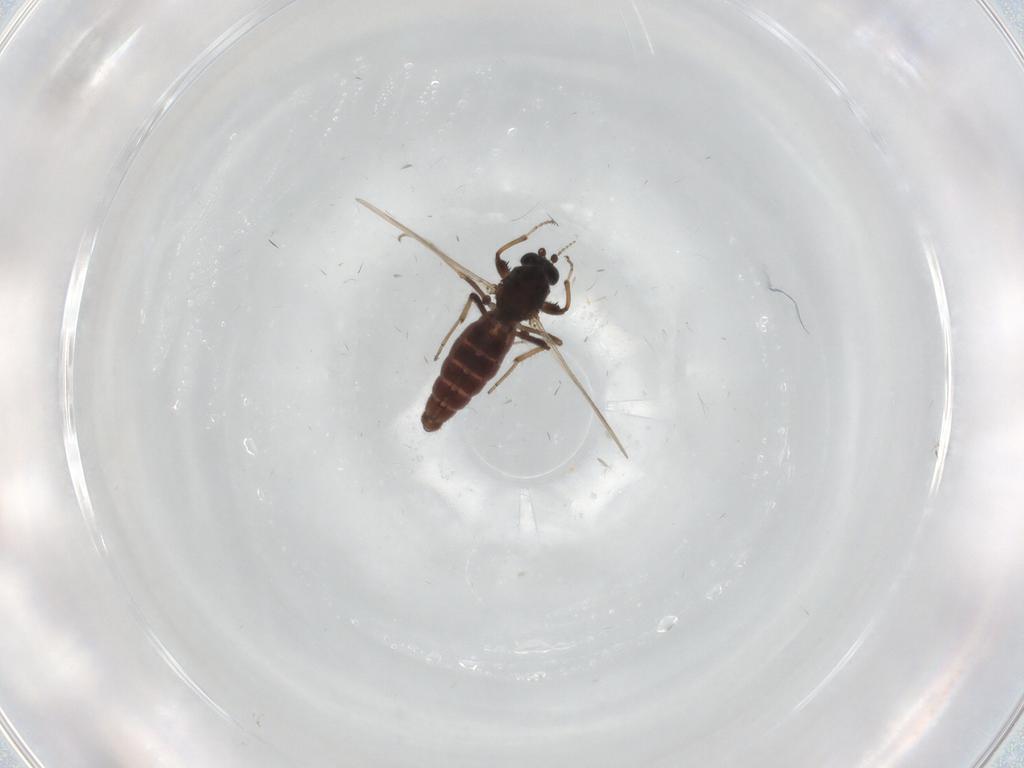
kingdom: Animalia
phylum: Arthropoda
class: Insecta
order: Diptera
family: Ceratopogonidae
